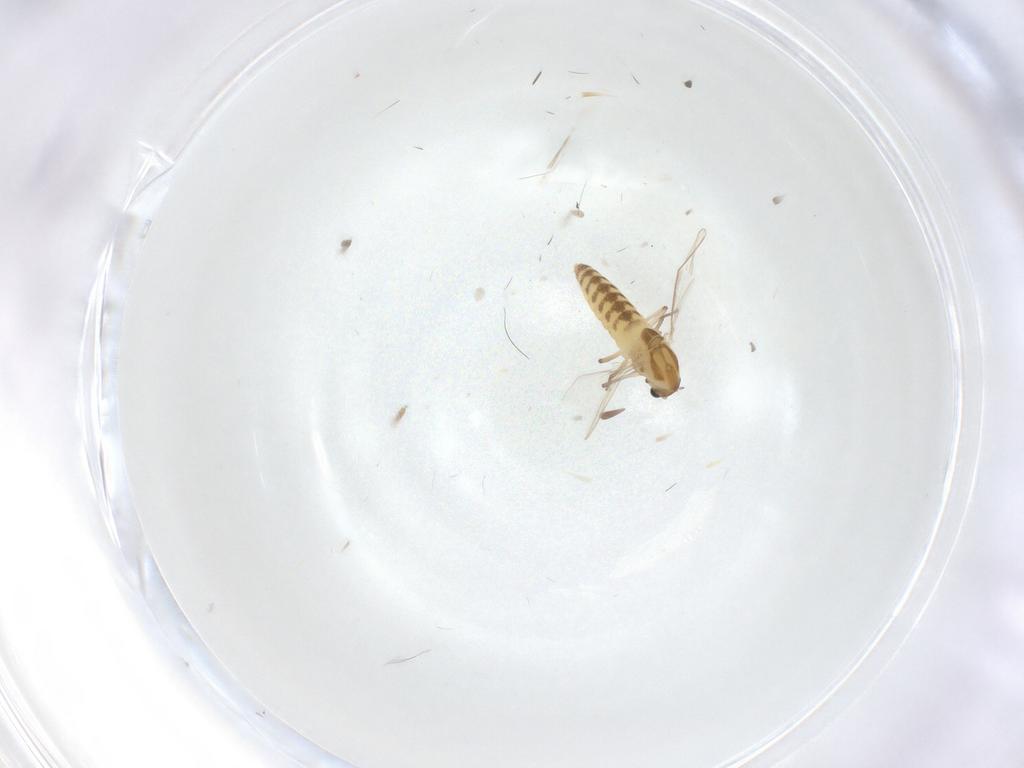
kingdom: Animalia
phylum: Arthropoda
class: Insecta
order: Diptera
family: Chironomidae
